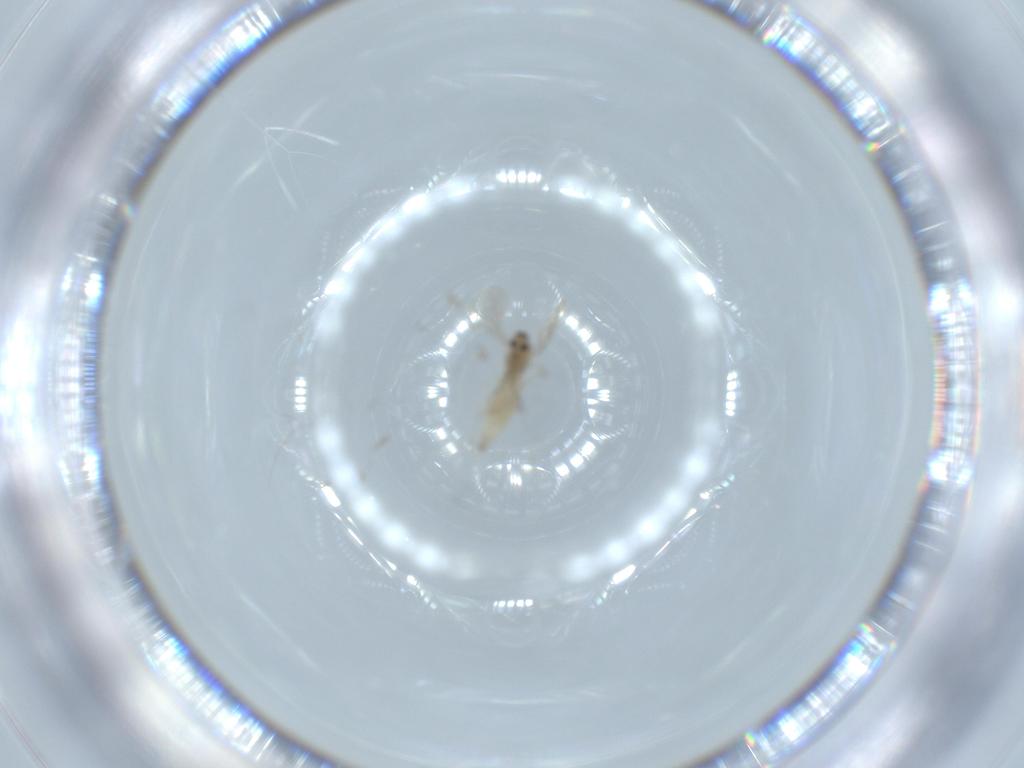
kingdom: Animalia
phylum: Arthropoda
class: Insecta
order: Diptera
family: Cecidomyiidae
